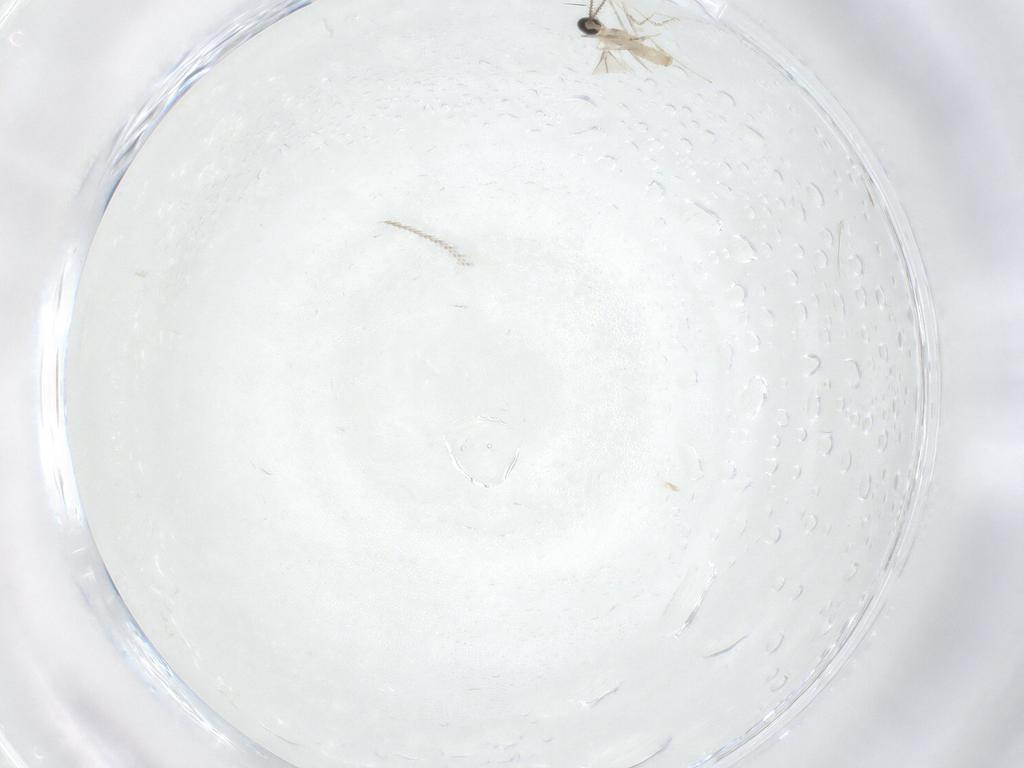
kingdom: Animalia
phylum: Arthropoda
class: Insecta
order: Diptera
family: Cecidomyiidae
